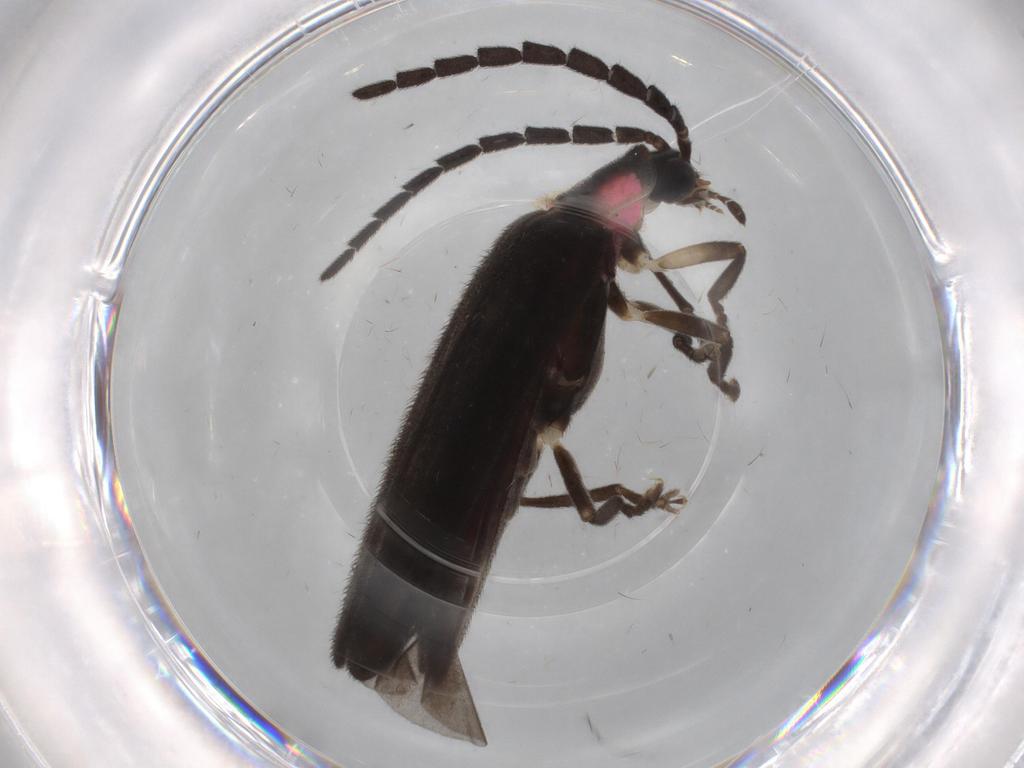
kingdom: Animalia
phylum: Arthropoda
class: Insecta
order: Coleoptera
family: Lampyridae
